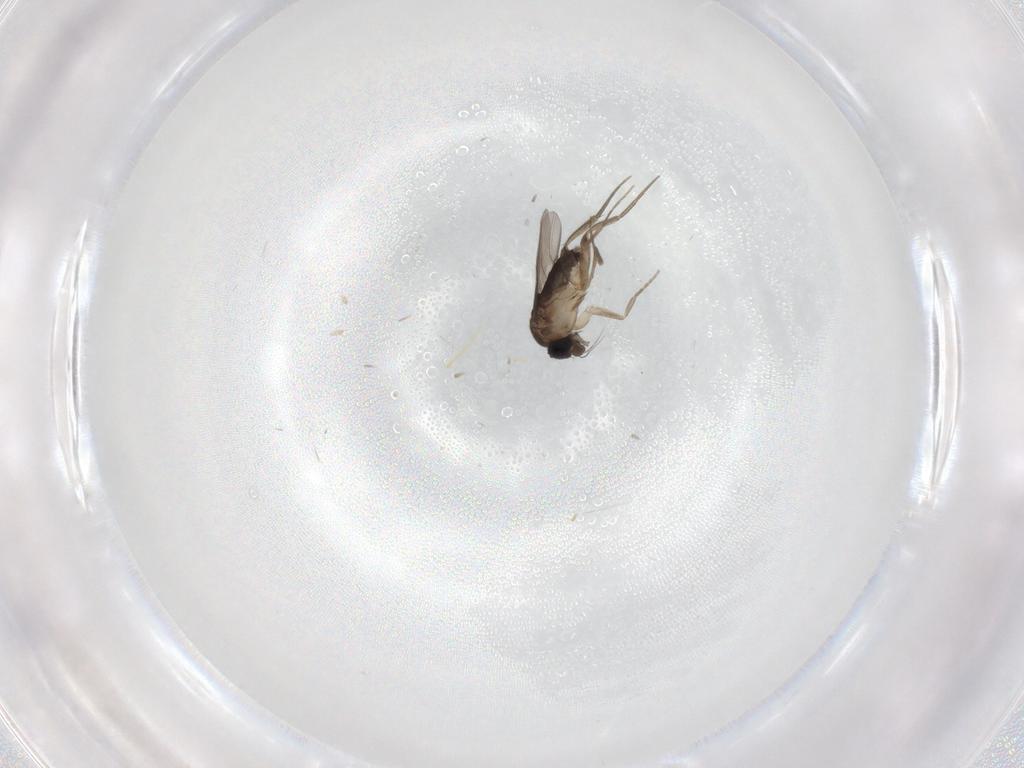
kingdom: Animalia
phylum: Arthropoda
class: Insecta
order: Diptera
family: Phoridae
